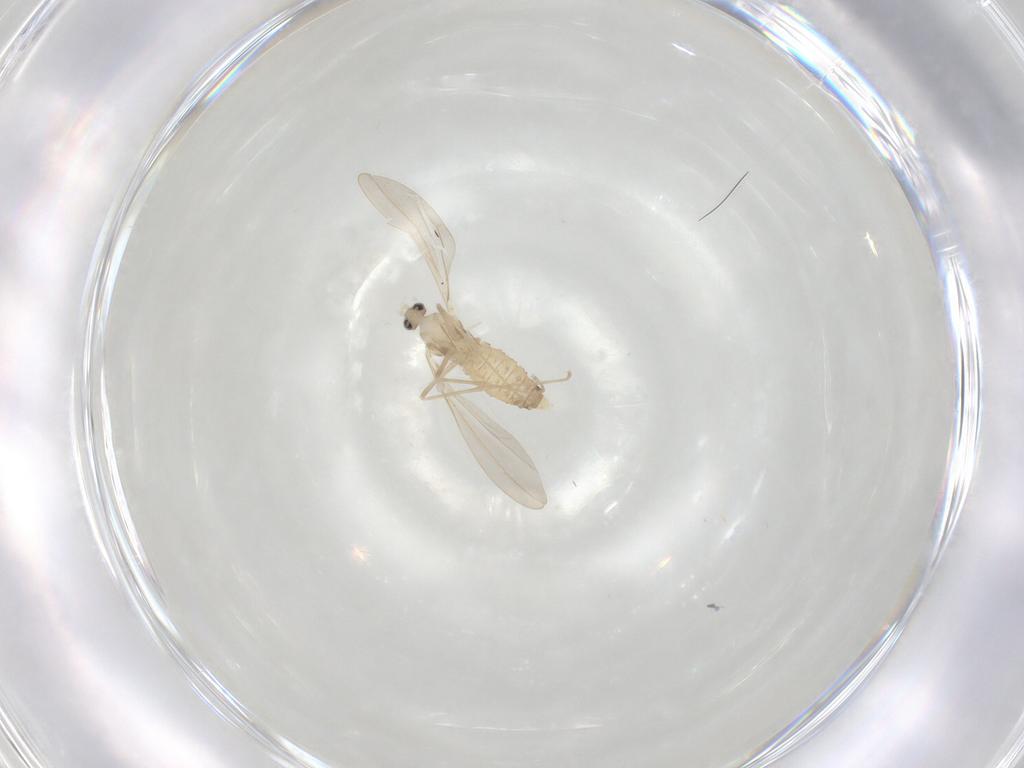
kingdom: Animalia
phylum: Arthropoda
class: Insecta
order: Diptera
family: Cecidomyiidae
